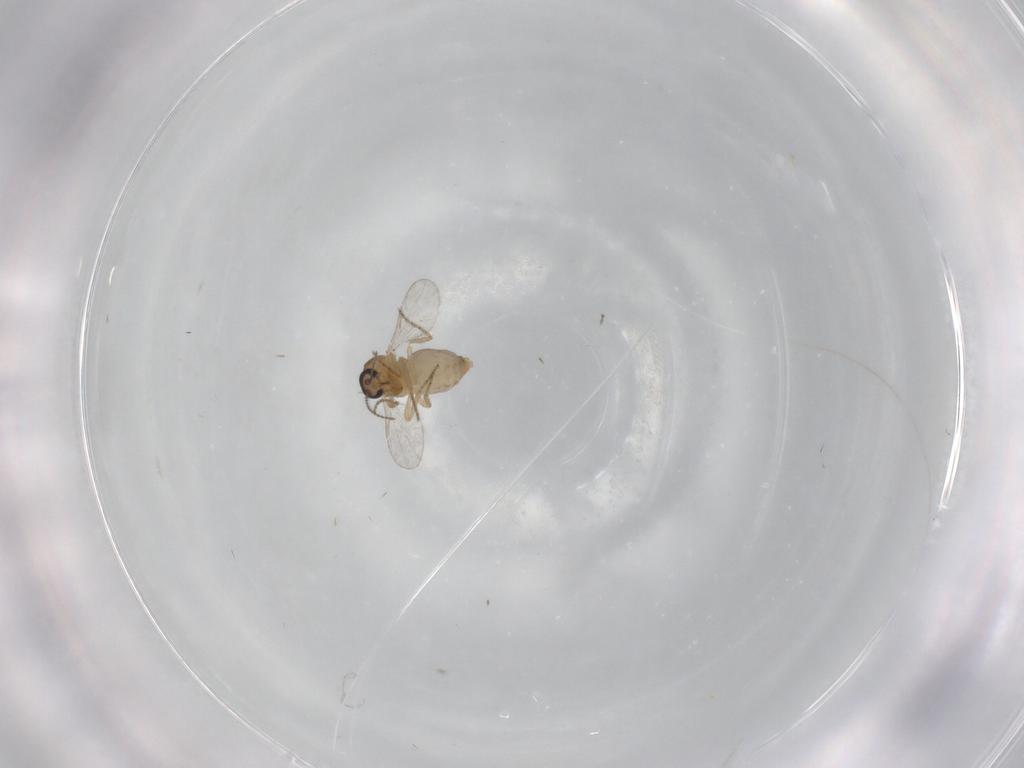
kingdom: Animalia
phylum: Arthropoda
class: Insecta
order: Diptera
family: Ceratopogonidae
